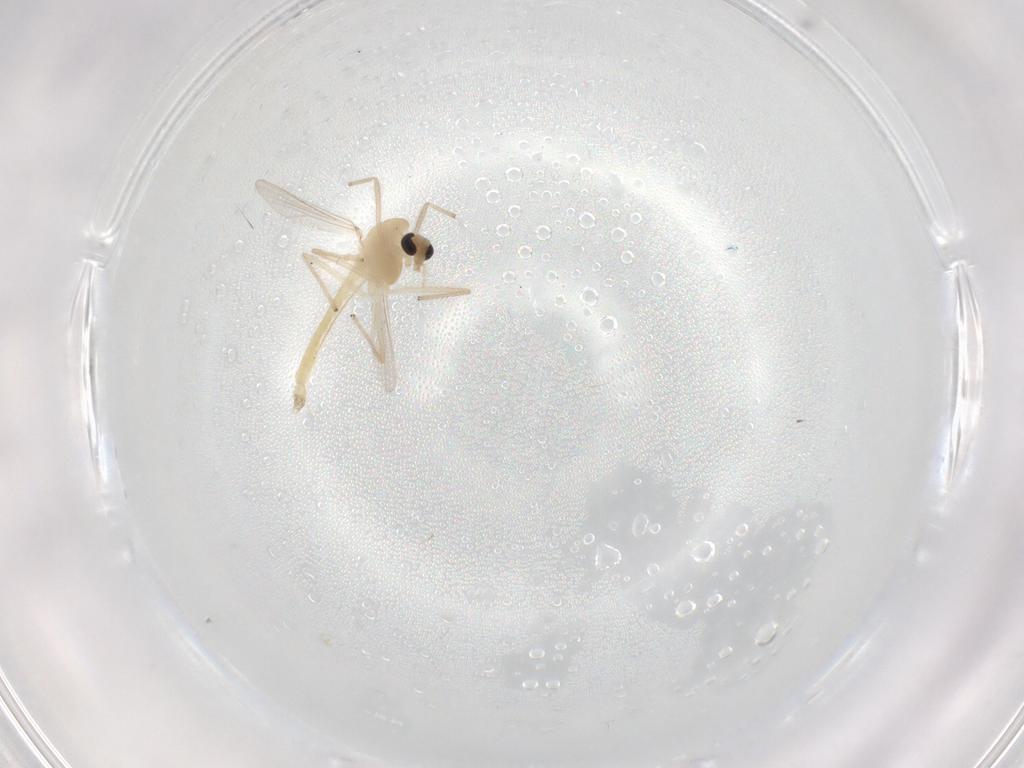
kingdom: Animalia
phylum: Arthropoda
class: Insecta
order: Diptera
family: Chironomidae
